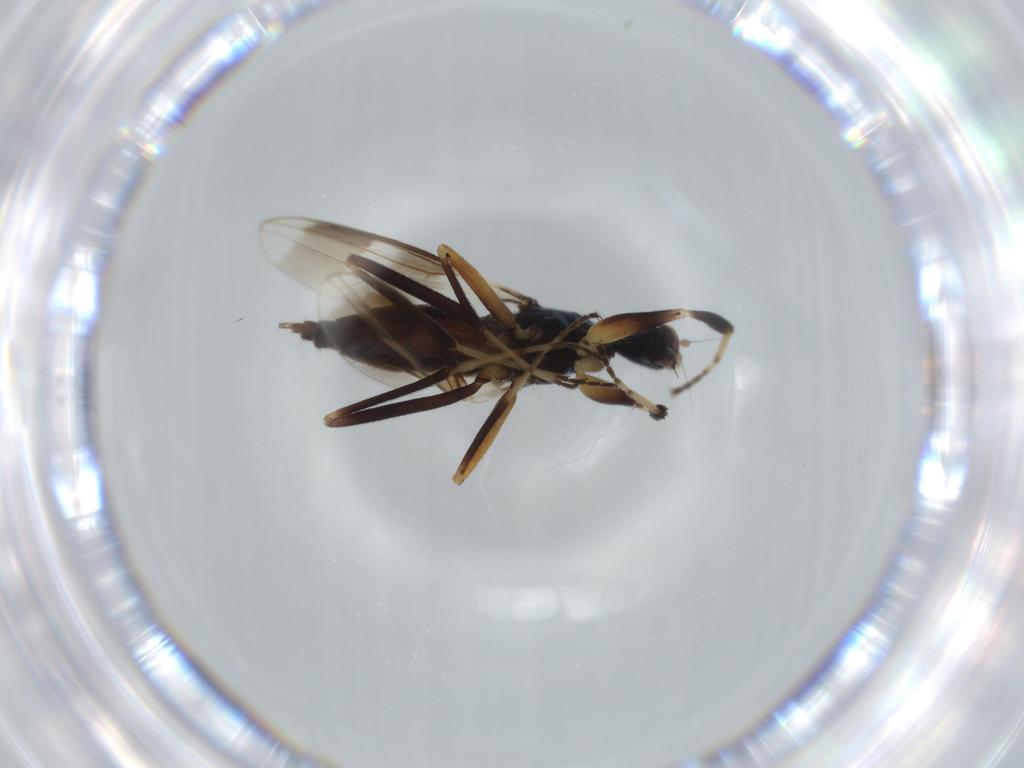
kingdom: Animalia
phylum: Arthropoda
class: Insecta
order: Diptera
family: Hybotidae
